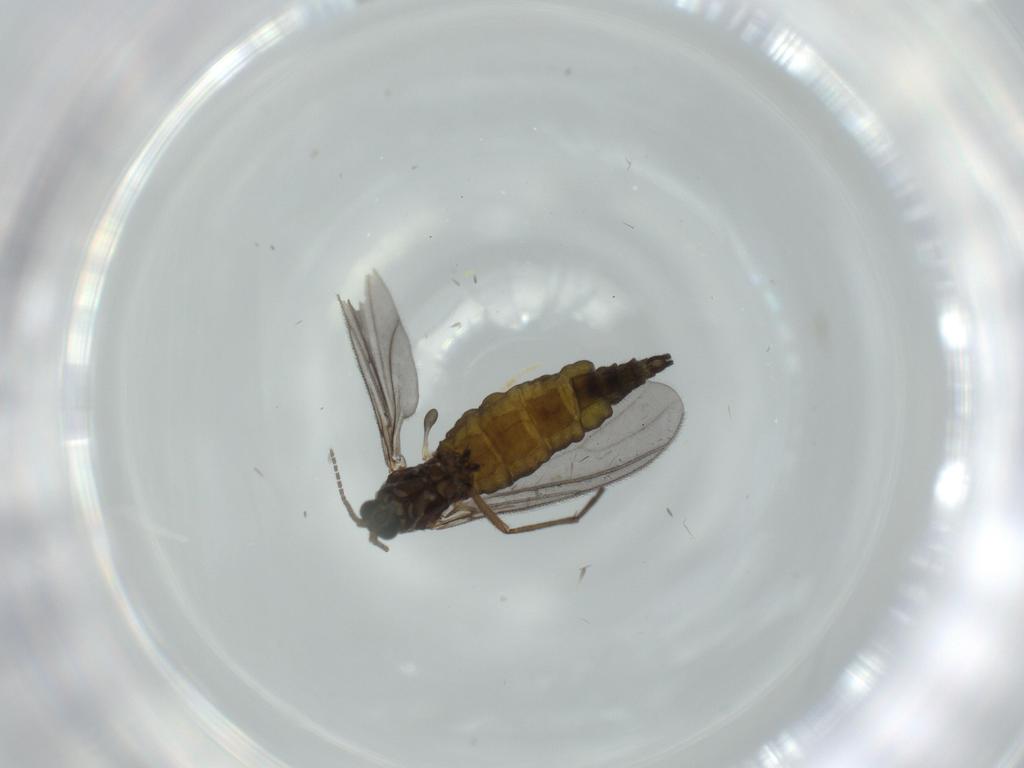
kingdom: Animalia
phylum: Arthropoda
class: Insecta
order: Diptera
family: Sciaridae
